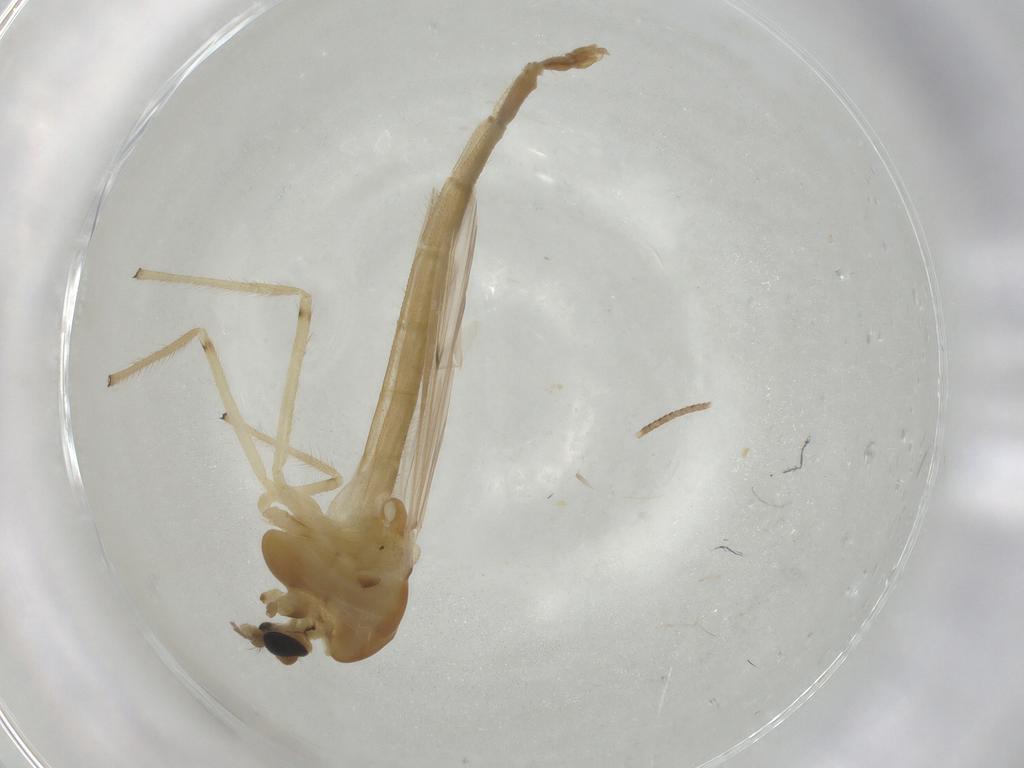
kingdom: Animalia
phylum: Arthropoda
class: Insecta
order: Diptera
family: Chironomidae
